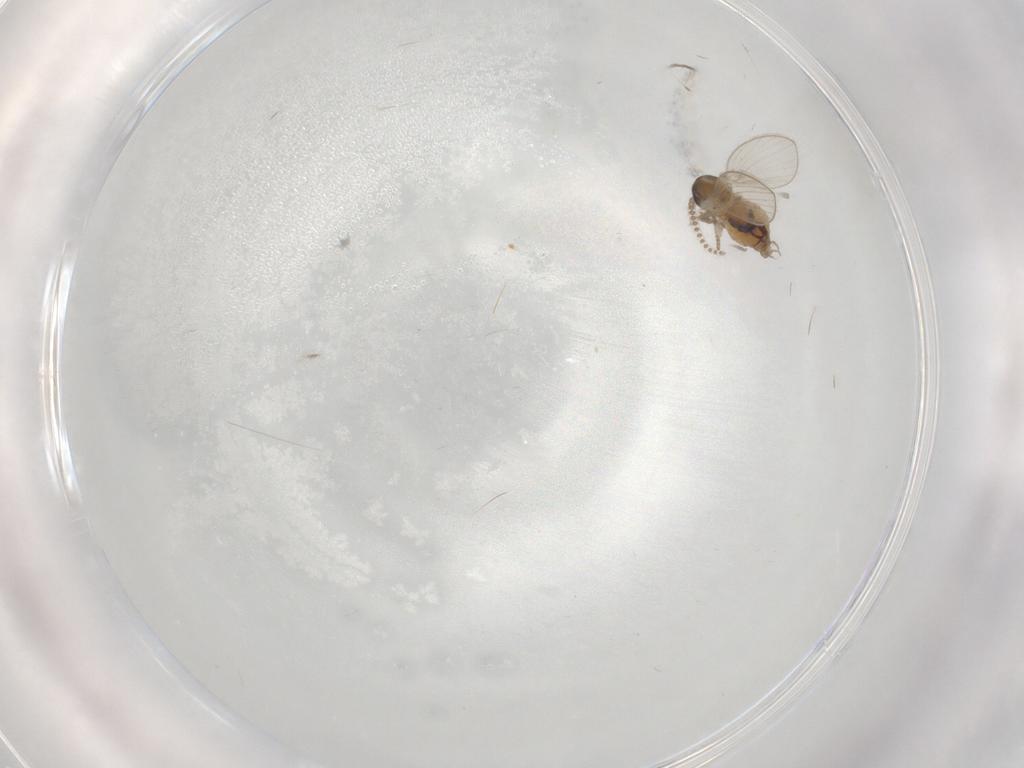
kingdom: Animalia
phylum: Arthropoda
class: Insecta
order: Diptera
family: Psychodidae
